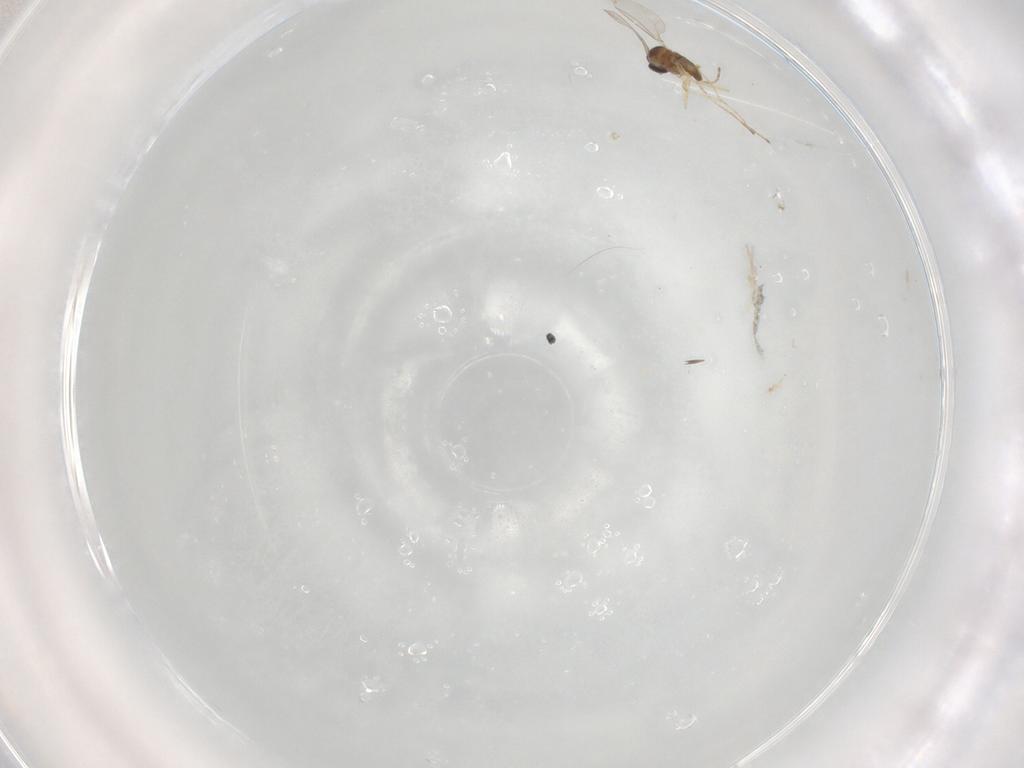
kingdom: Animalia
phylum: Arthropoda
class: Insecta
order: Diptera
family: Cecidomyiidae
